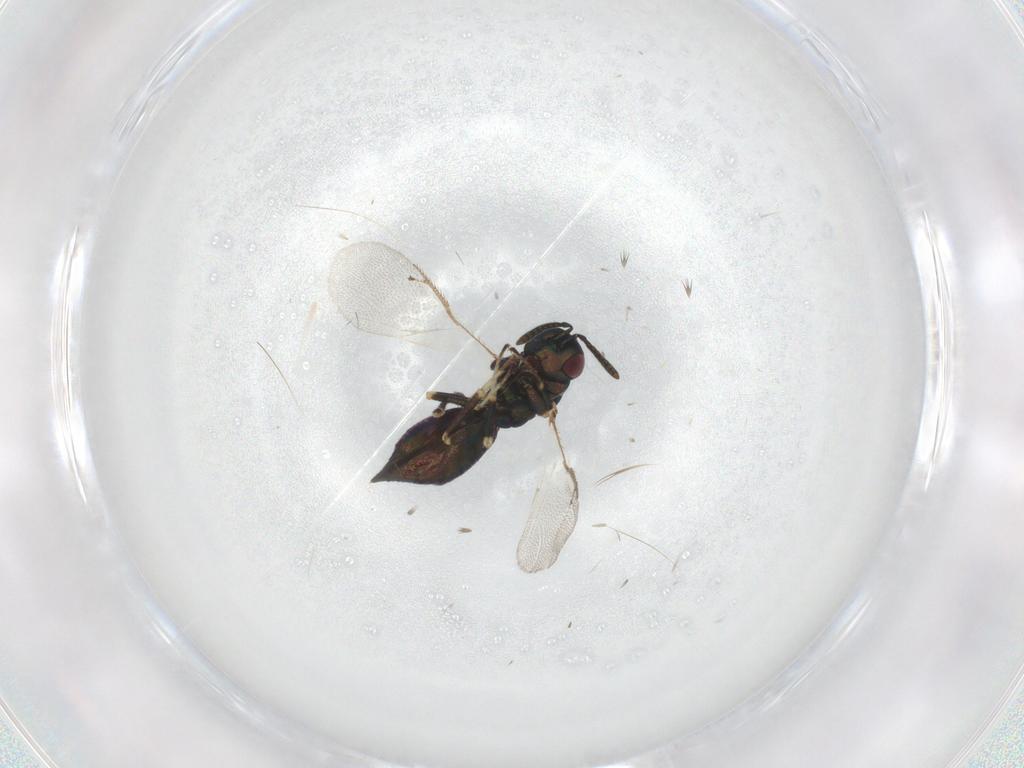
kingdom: Animalia
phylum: Arthropoda
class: Insecta
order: Hymenoptera
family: Pteromalidae
